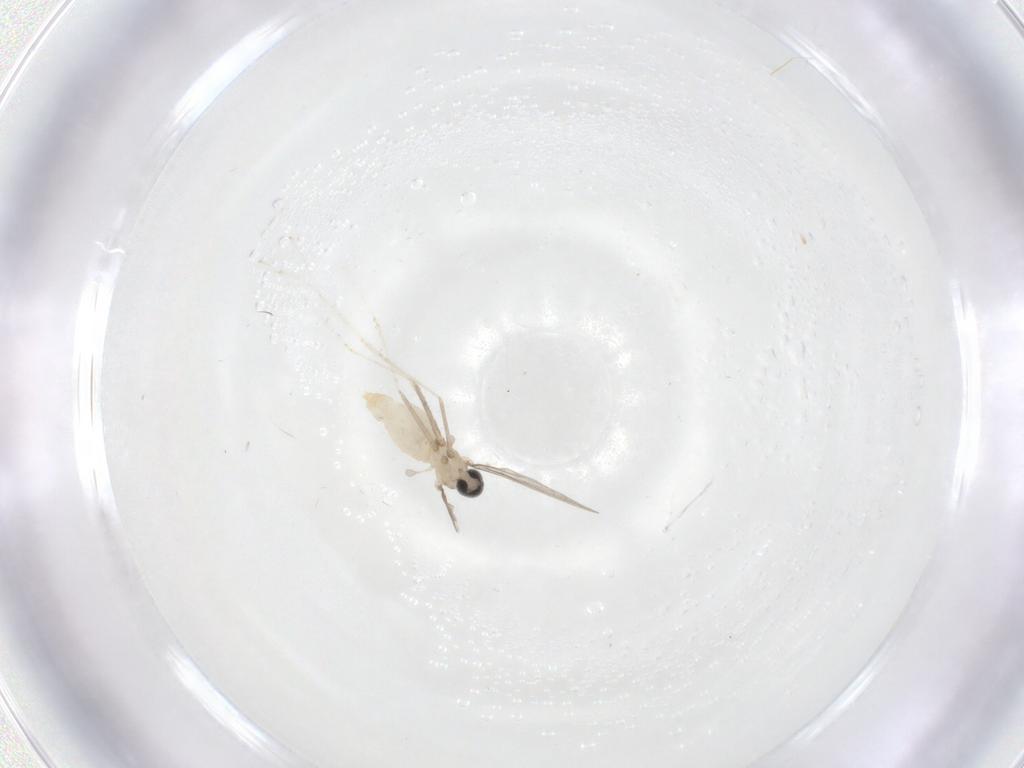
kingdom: Animalia
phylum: Arthropoda
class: Insecta
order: Diptera
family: Cecidomyiidae
